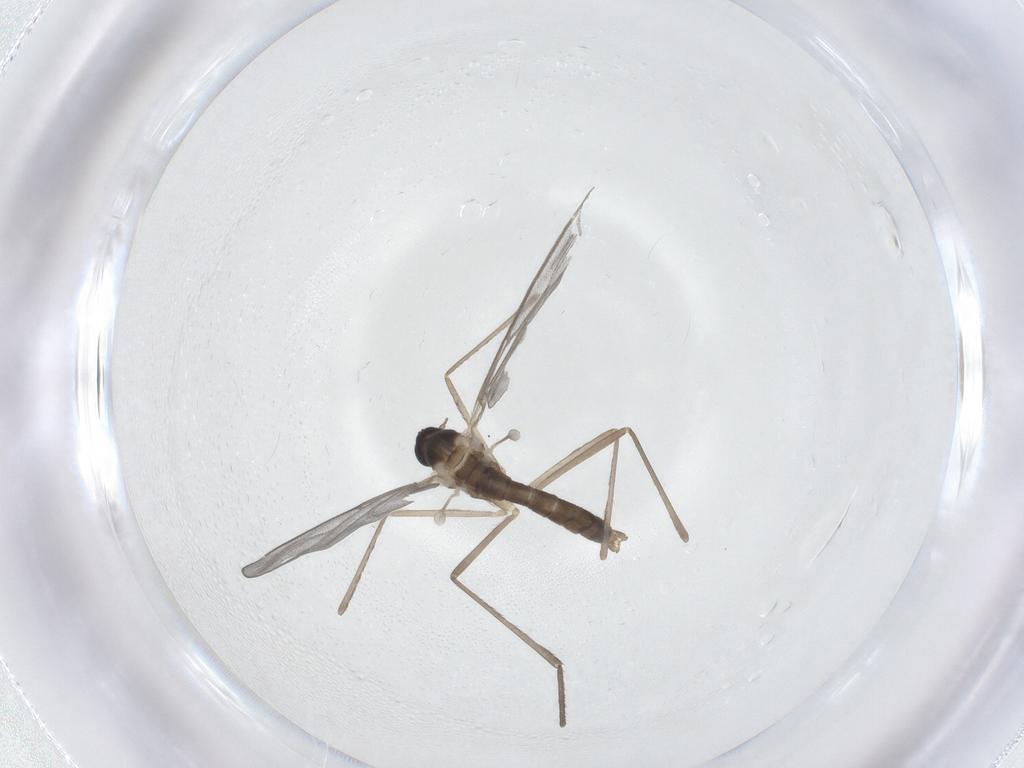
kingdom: Animalia
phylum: Arthropoda
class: Insecta
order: Diptera
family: Cecidomyiidae
